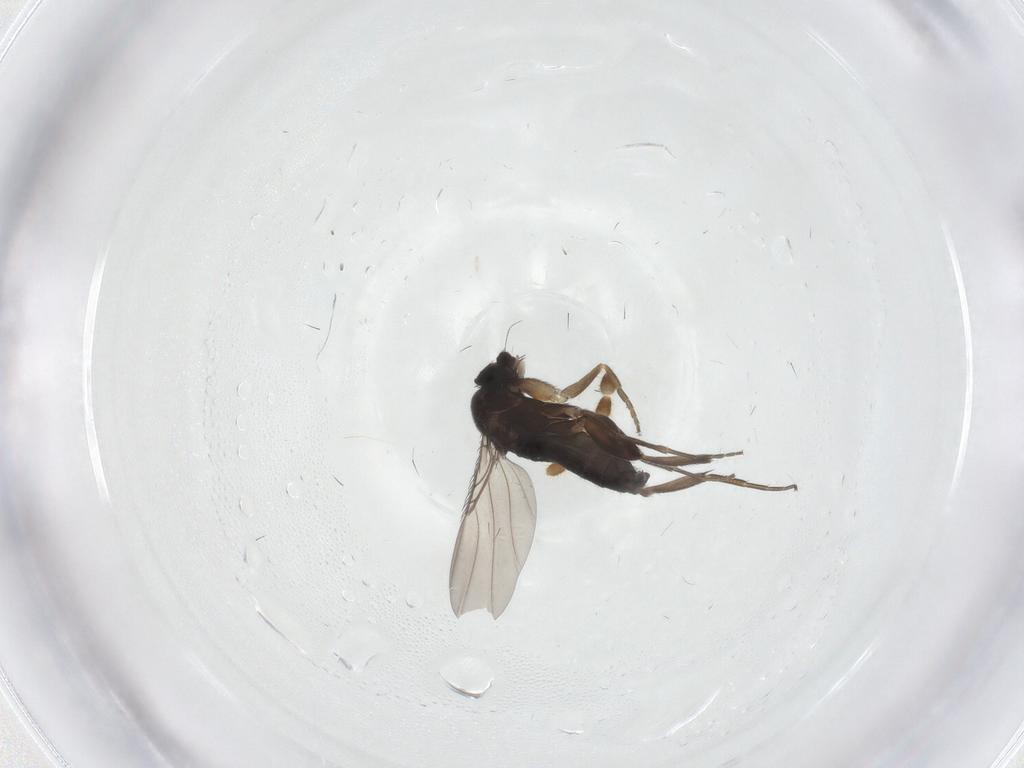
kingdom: Animalia
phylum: Arthropoda
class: Insecta
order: Diptera
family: Phoridae
